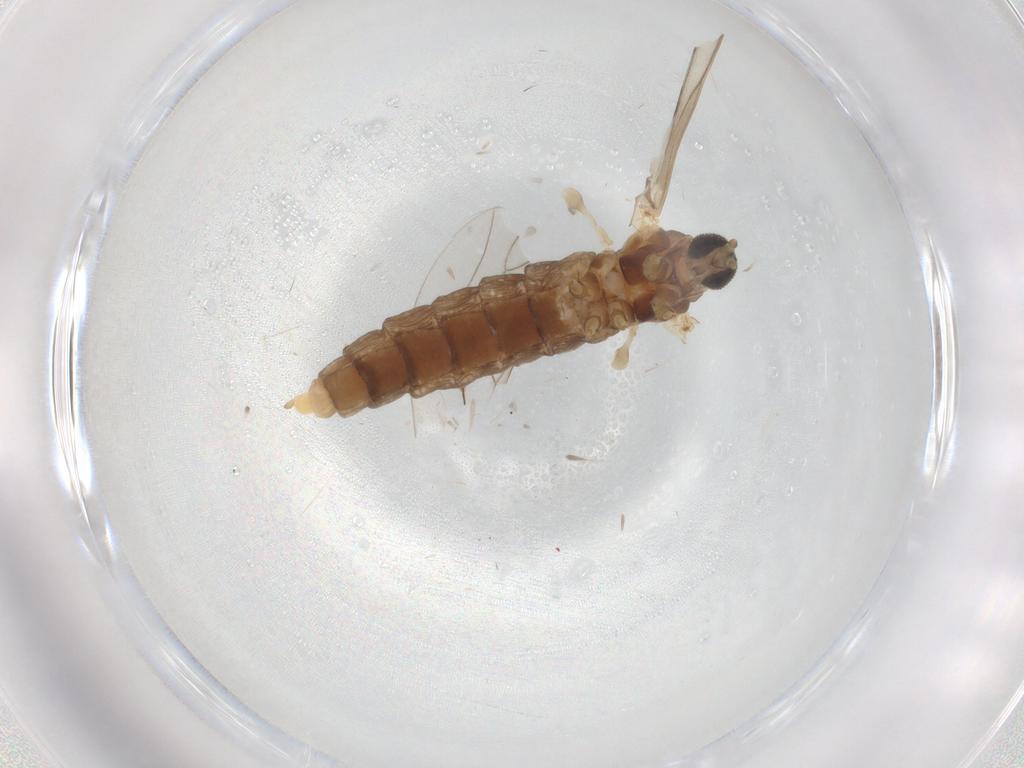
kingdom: Animalia
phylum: Arthropoda
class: Insecta
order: Diptera
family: Cecidomyiidae
